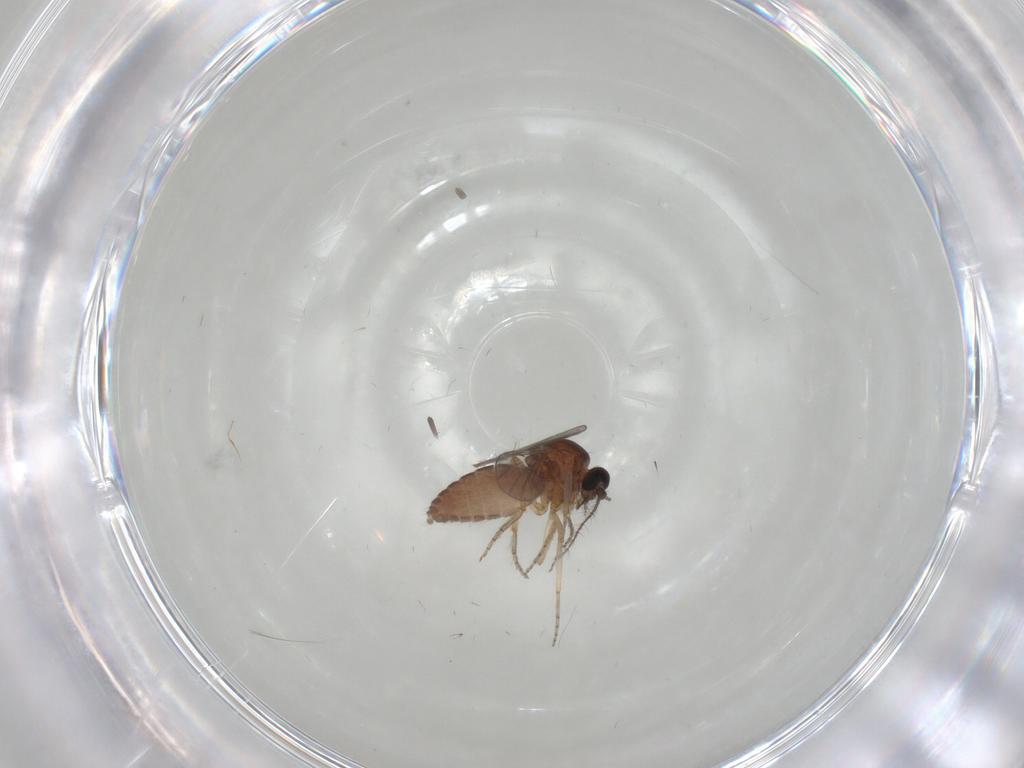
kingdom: Animalia
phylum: Arthropoda
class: Insecta
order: Diptera
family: Ceratopogonidae
